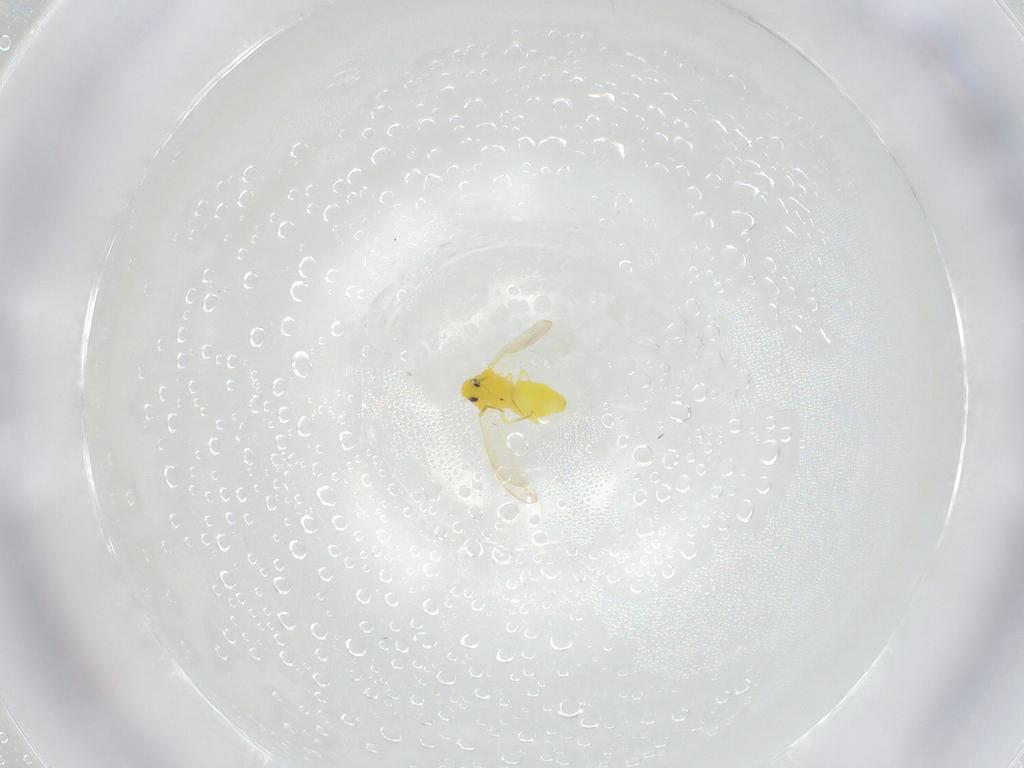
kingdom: Animalia
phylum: Arthropoda
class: Insecta
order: Hemiptera
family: Aleyrodidae
